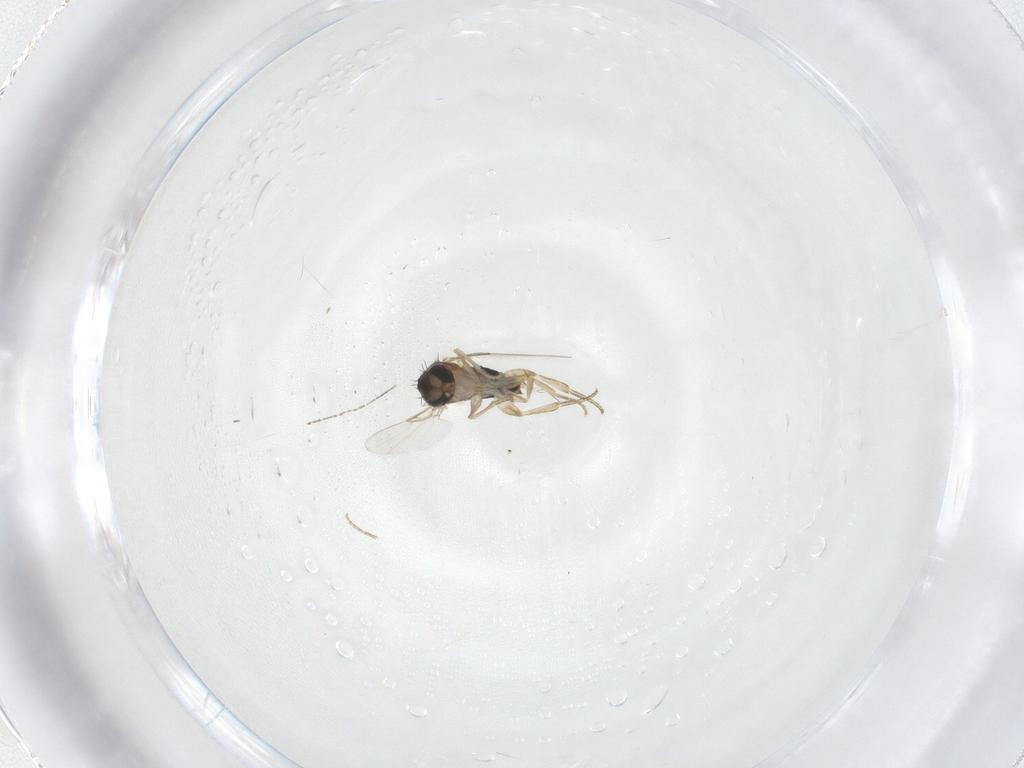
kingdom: Animalia
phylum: Arthropoda
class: Insecta
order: Diptera
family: Phoridae
